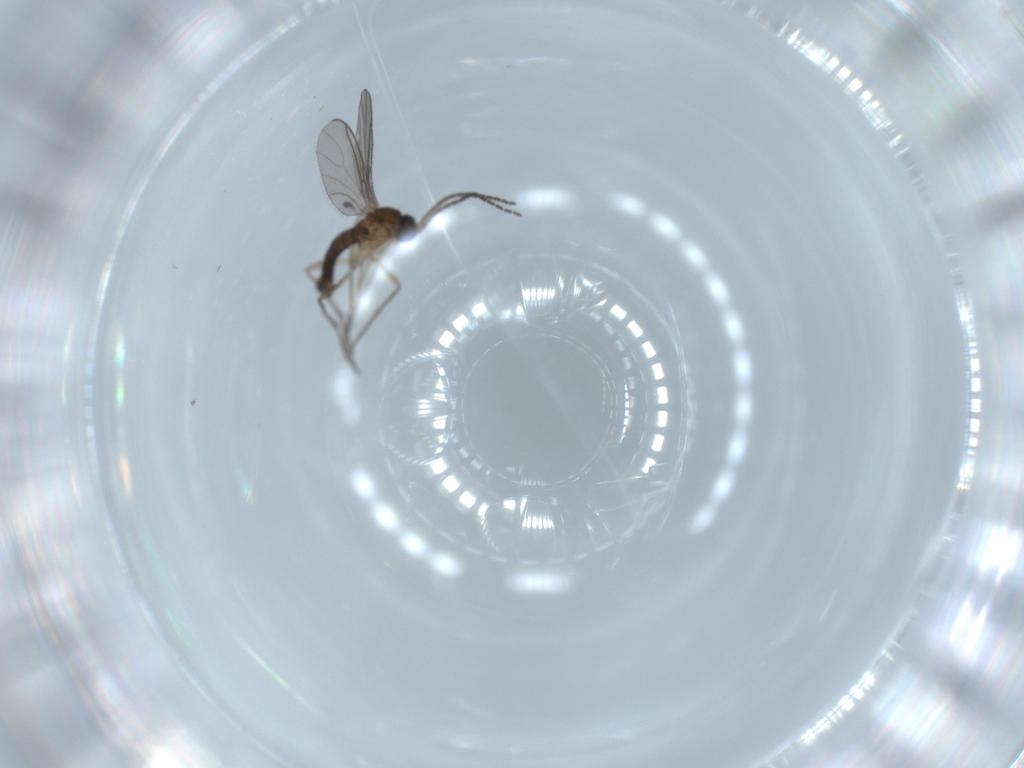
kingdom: Animalia
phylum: Arthropoda
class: Insecta
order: Diptera
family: Sciaridae
